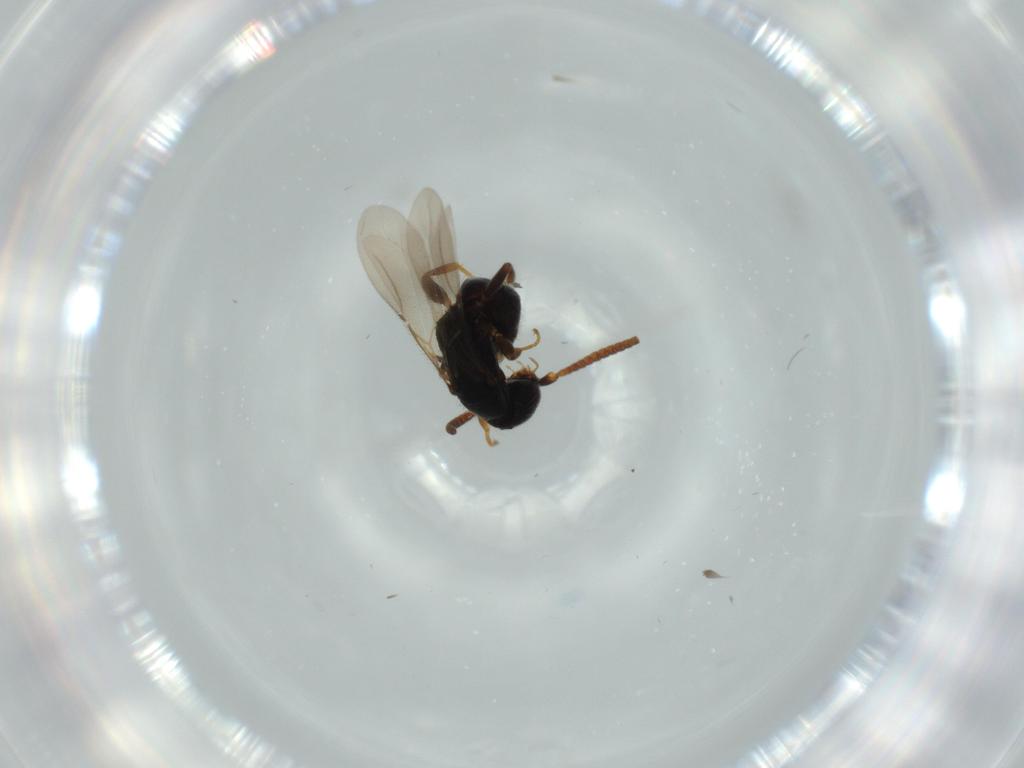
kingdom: Animalia
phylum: Arthropoda
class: Insecta
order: Hymenoptera
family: Bethylidae
